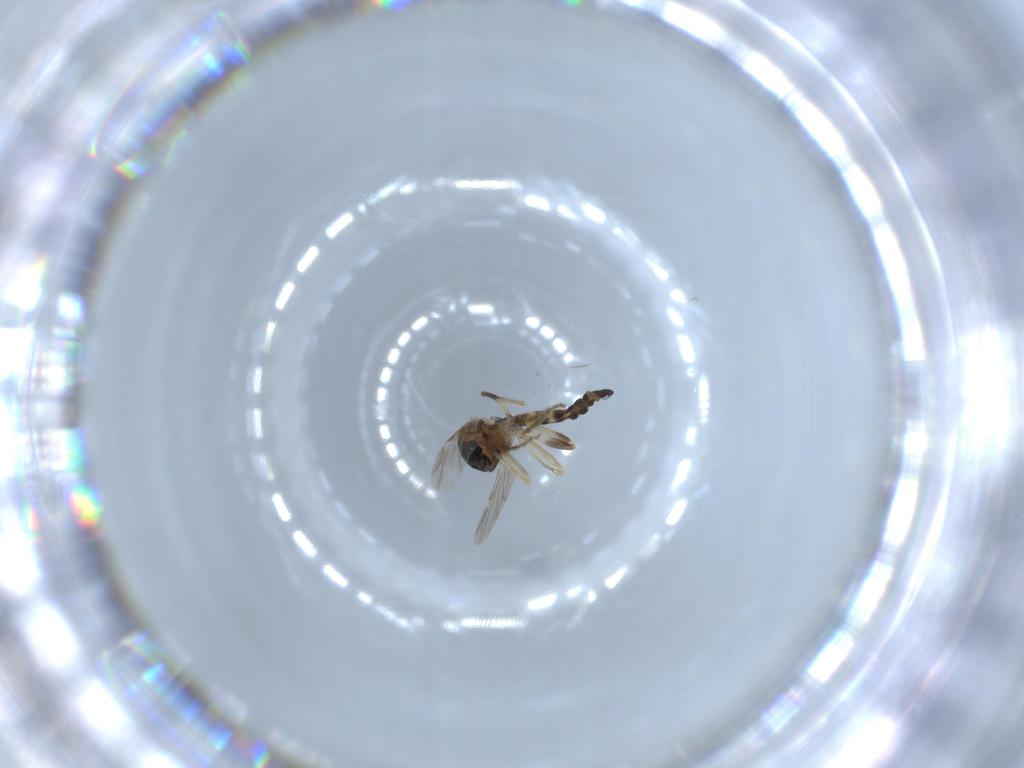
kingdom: Animalia
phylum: Arthropoda
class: Insecta
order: Diptera
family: Ceratopogonidae
